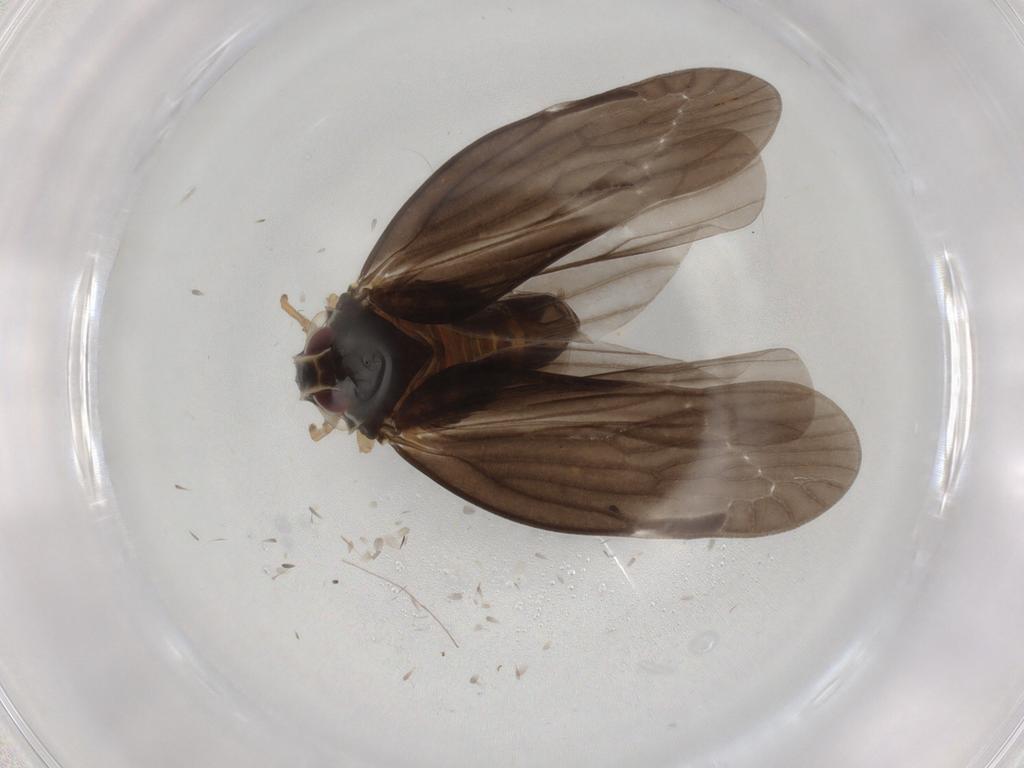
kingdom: Animalia
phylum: Arthropoda
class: Insecta
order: Hemiptera
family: Derbidae
